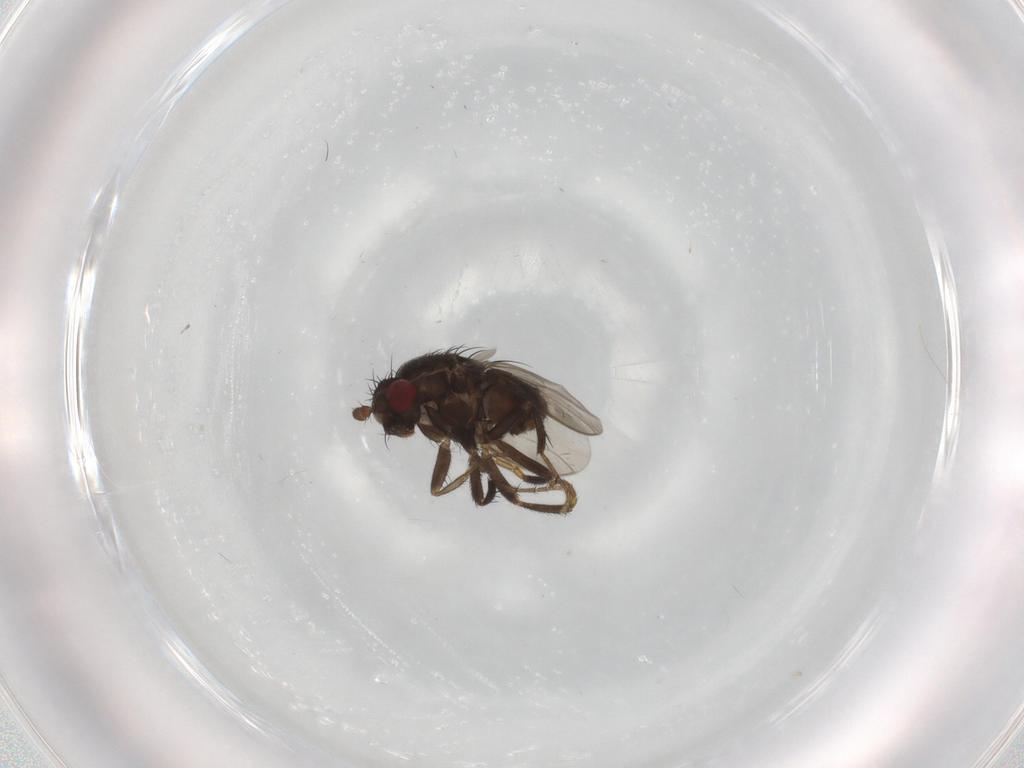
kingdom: Animalia
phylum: Arthropoda
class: Insecta
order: Diptera
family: Sphaeroceridae
